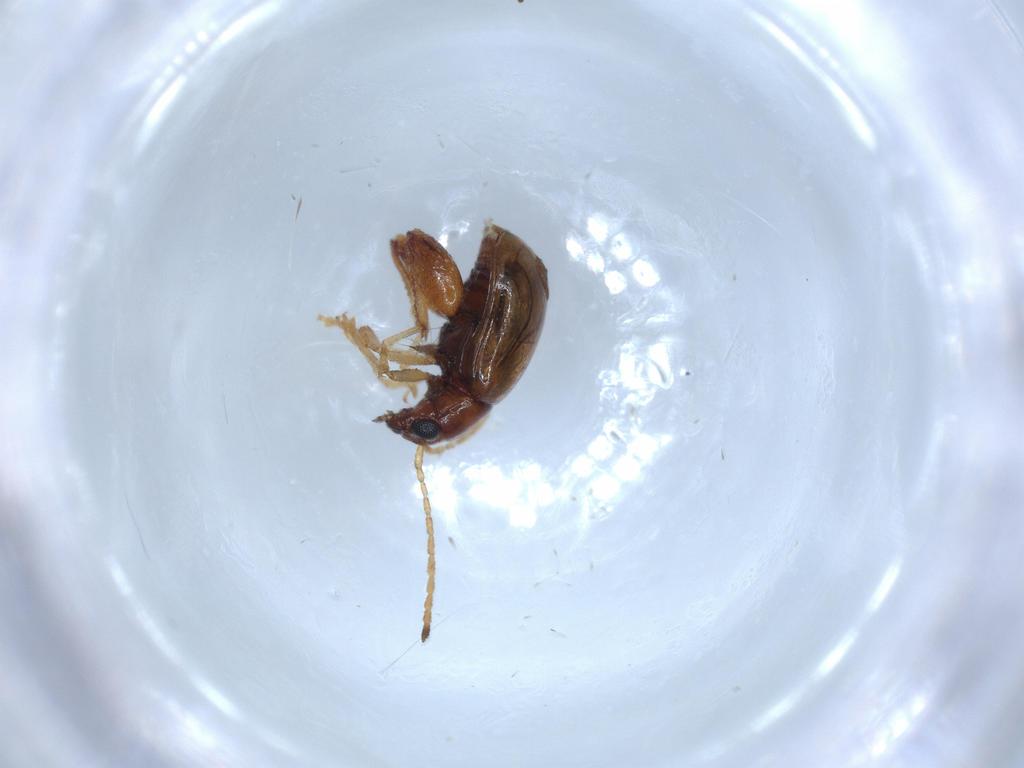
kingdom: Animalia
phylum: Arthropoda
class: Insecta
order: Coleoptera
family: Chrysomelidae
